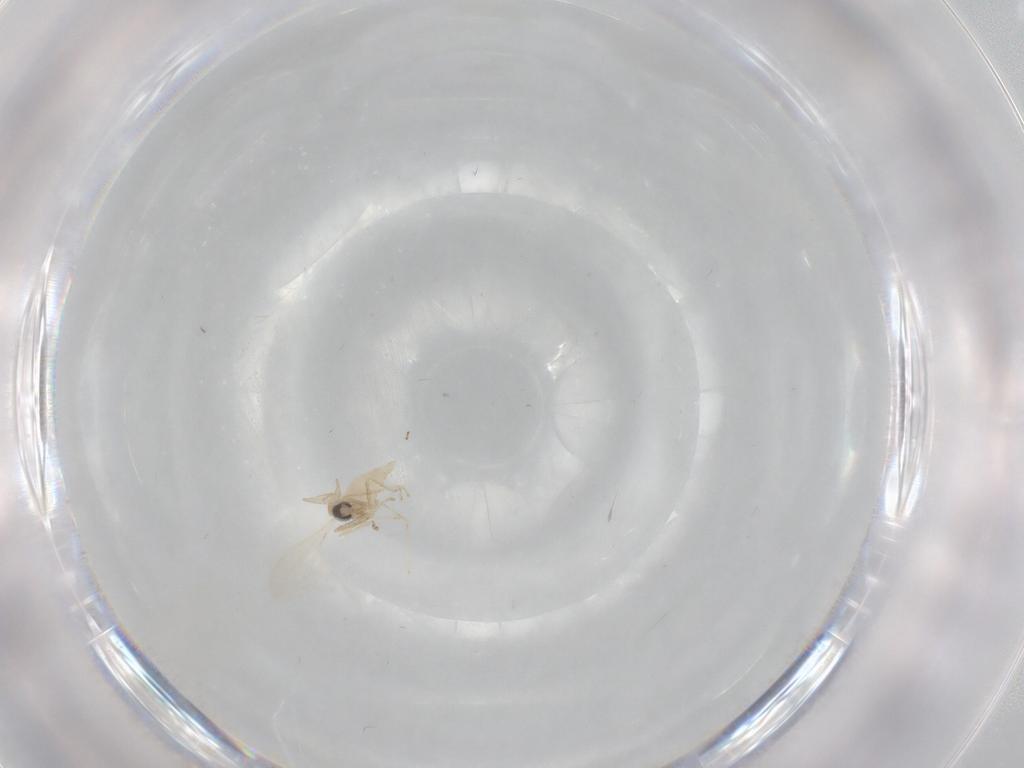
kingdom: Animalia
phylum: Arthropoda
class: Insecta
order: Diptera
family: Cecidomyiidae
